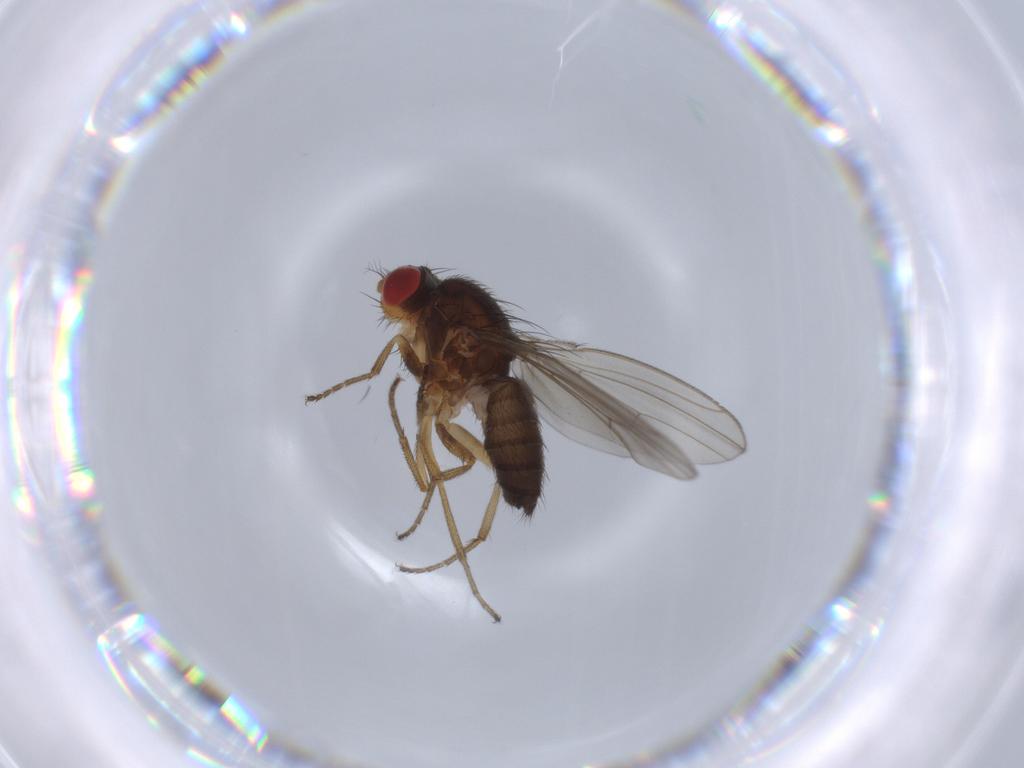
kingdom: Animalia
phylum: Arthropoda
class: Insecta
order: Diptera
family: Drosophilidae
